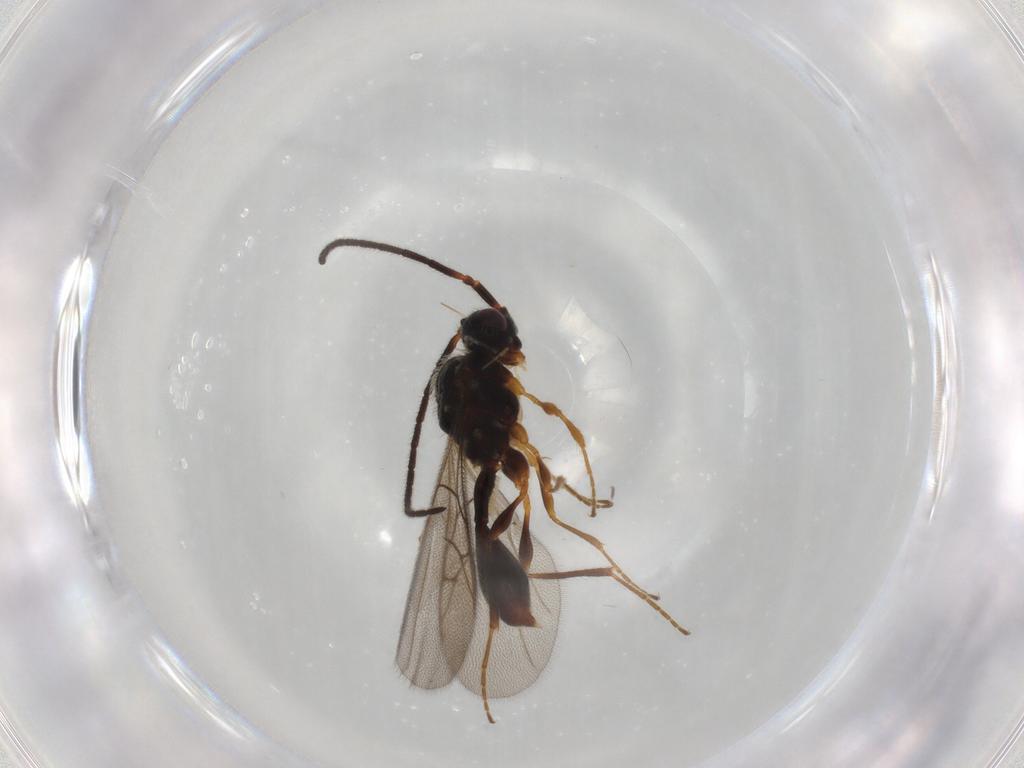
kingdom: Animalia
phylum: Arthropoda
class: Insecta
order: Hymenoptera
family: Diapriidae
